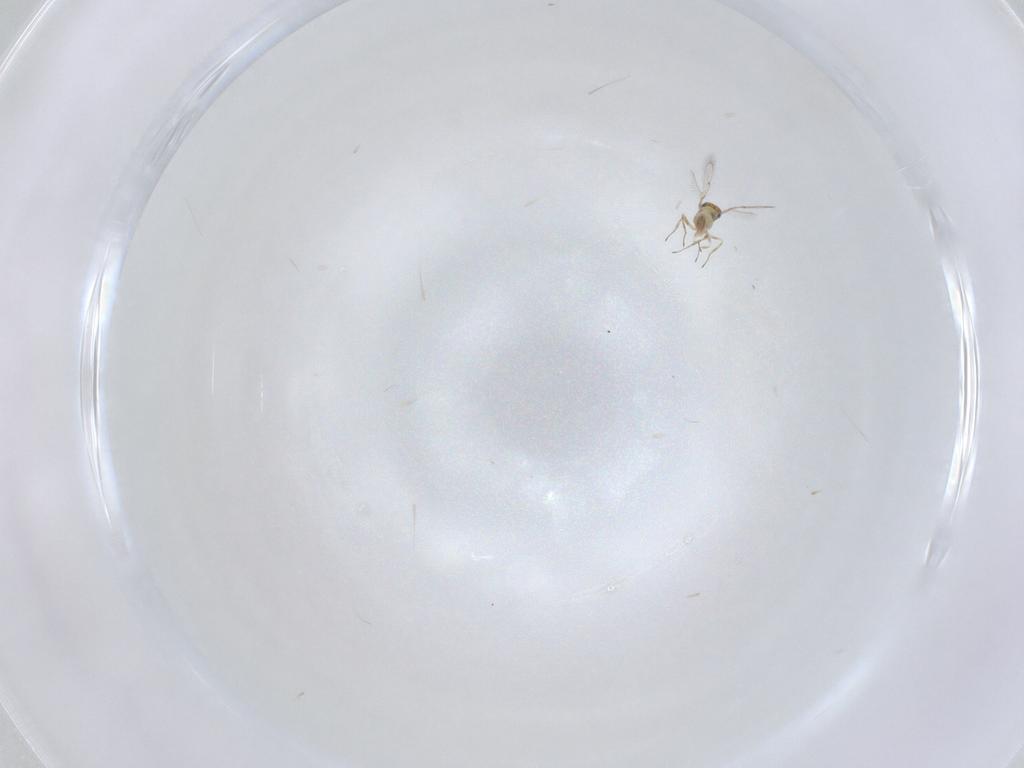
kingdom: Animalia
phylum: Arthropoda
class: Insecta
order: Hymenoptera
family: Trichogrammatidae
